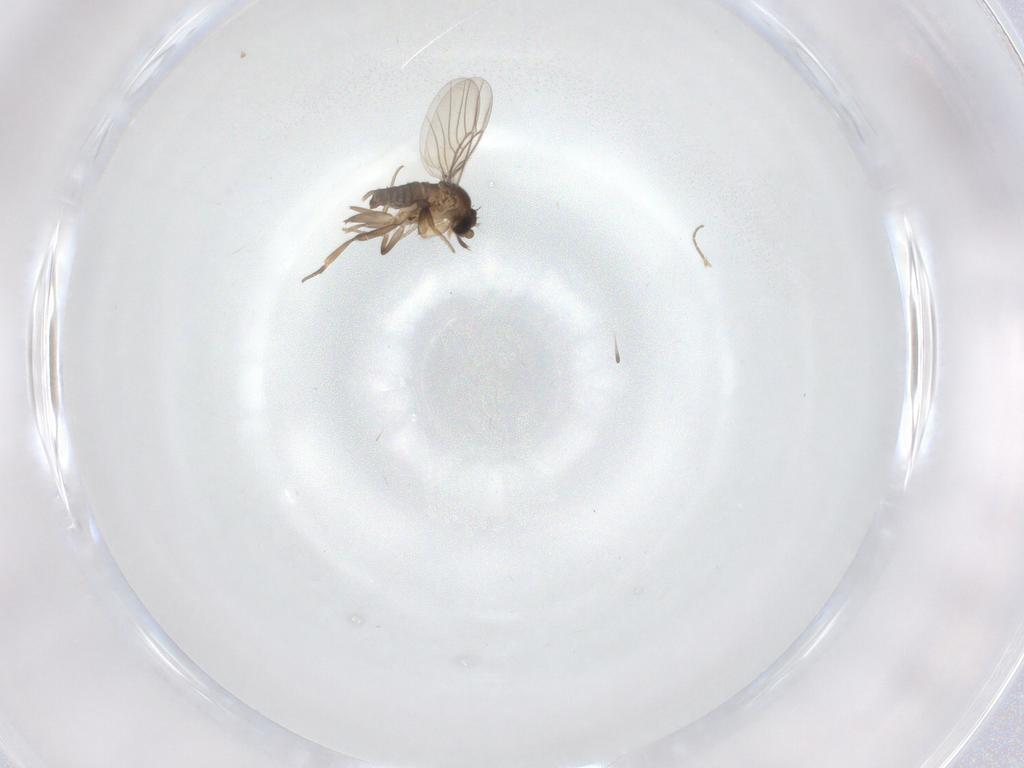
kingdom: Animalia
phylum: Arthropoda
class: Insecta
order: Diptera
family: Phoridae
